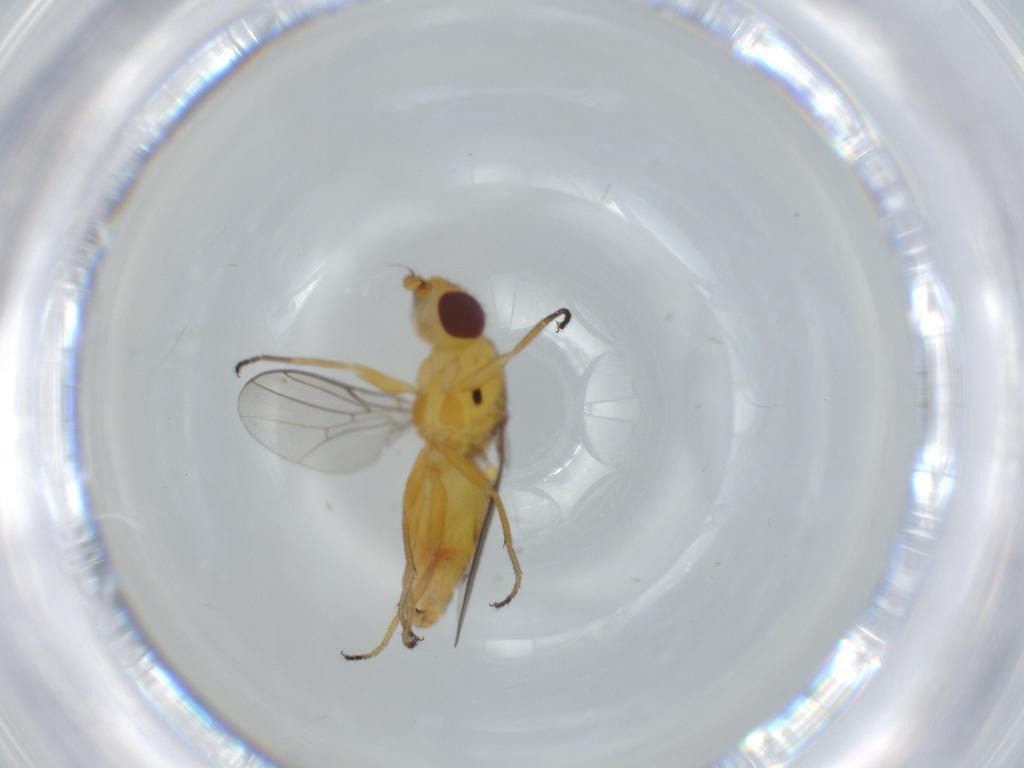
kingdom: Animalia
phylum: Arthropoda
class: Insecta
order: Diptera
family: Chloropidae
